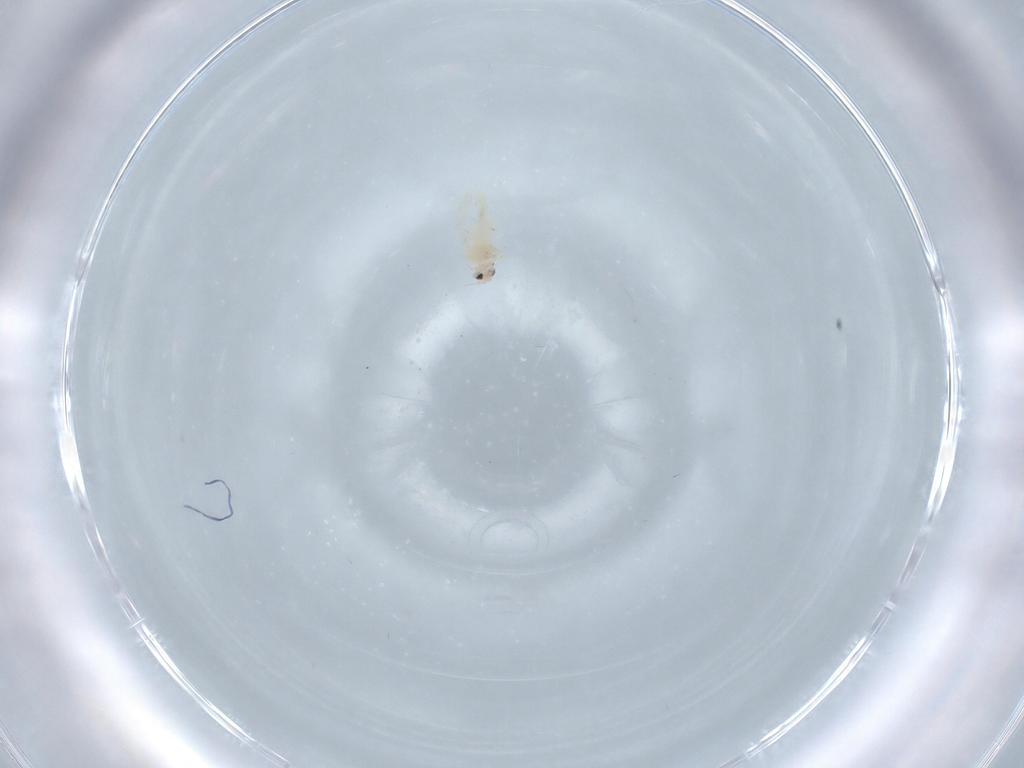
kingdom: Animalia
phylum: Arthropoda
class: Insecta
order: Hemiptera
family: Aleyrodidae
